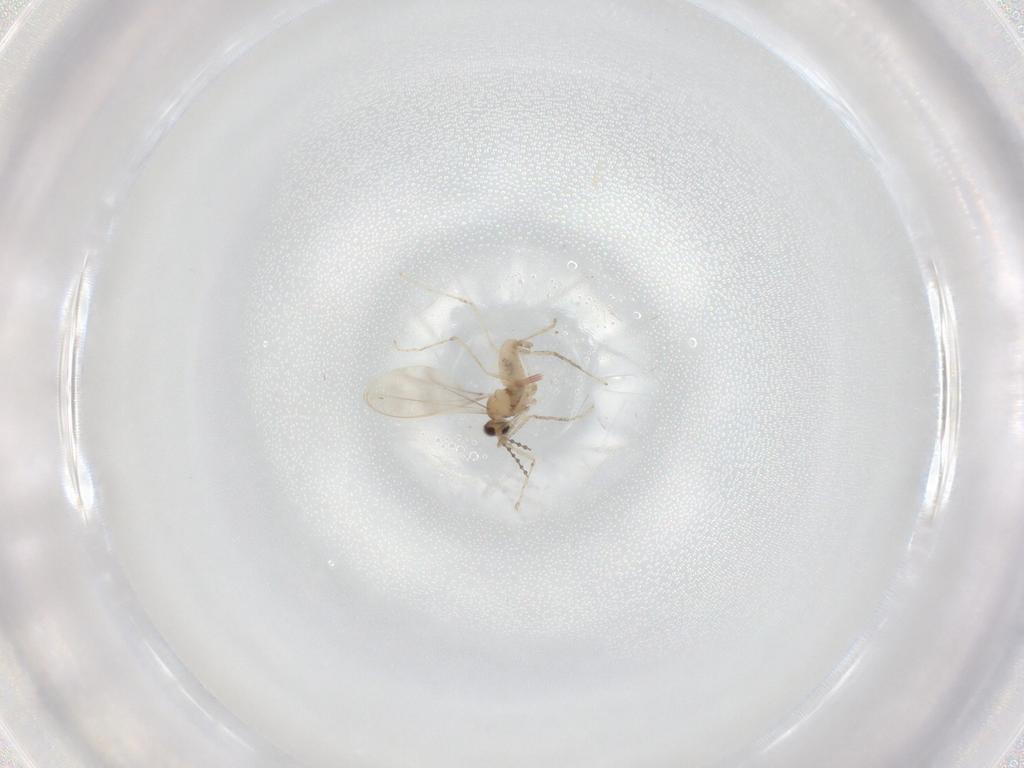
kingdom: Animalia
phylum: Arthropoda
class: Insecta
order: Diptera
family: Sphaeroceridae
